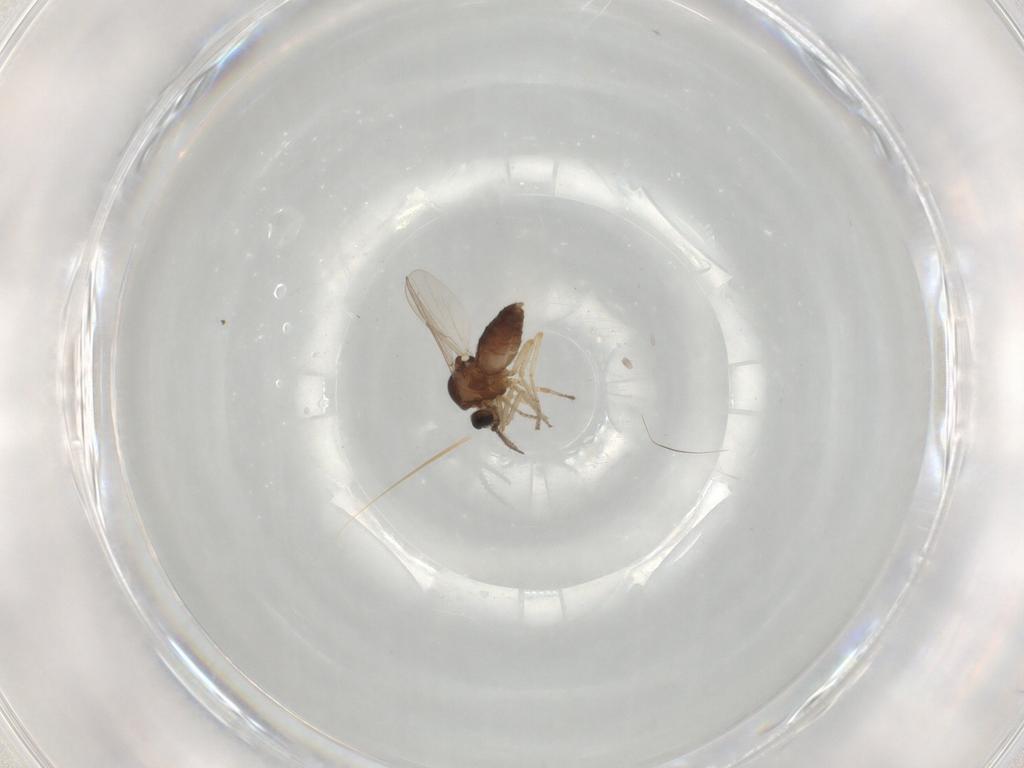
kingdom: Animalia
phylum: Arthropoda
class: Insecta
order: Diptera
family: Ceratopogonidae
